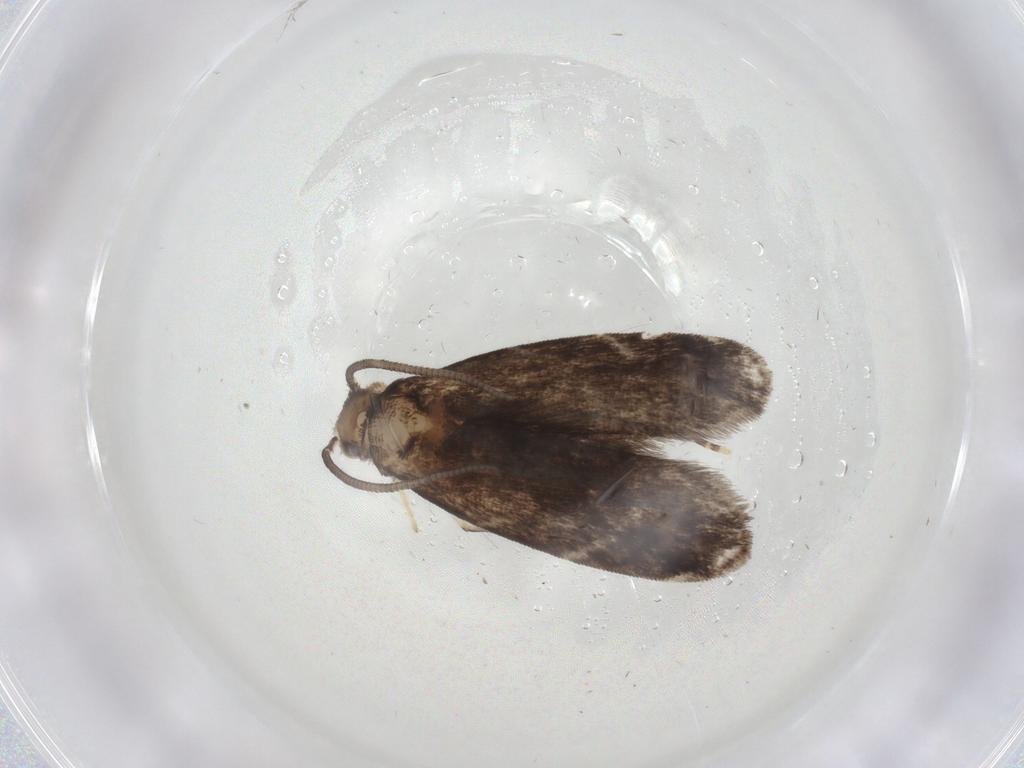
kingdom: Animalia
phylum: Arthropoda
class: Insecta
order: Lepidoptera
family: Dryadaulidae
